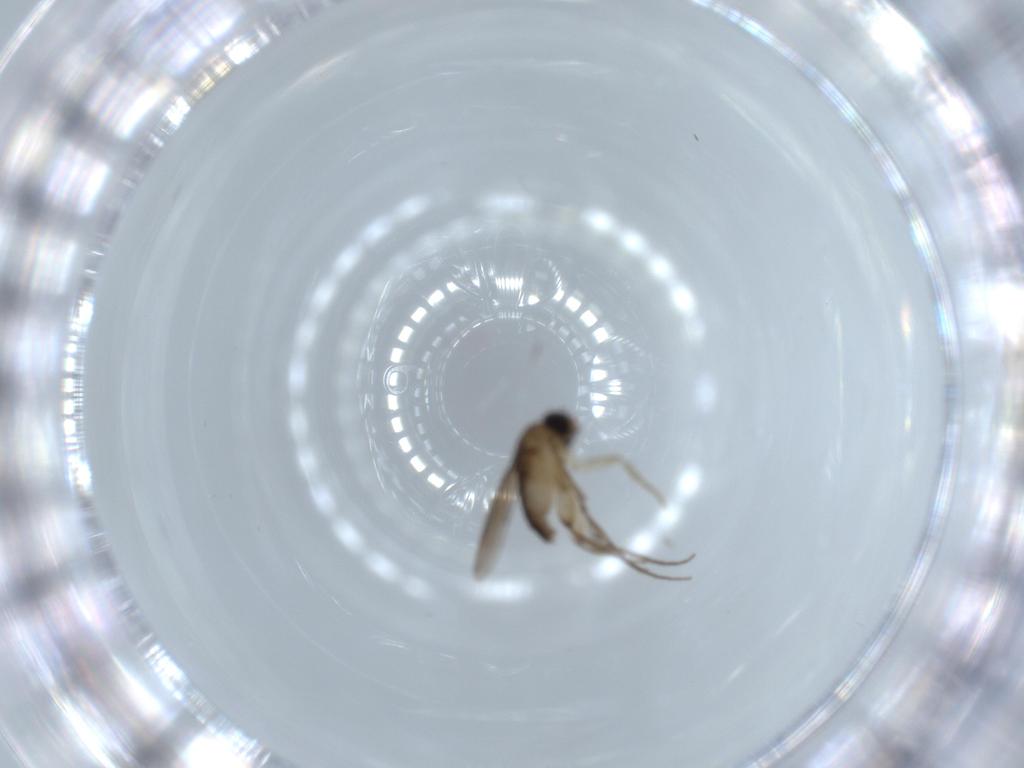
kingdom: Animalia
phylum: Arthropoda
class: Insecta
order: Diptera
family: Phoridae
